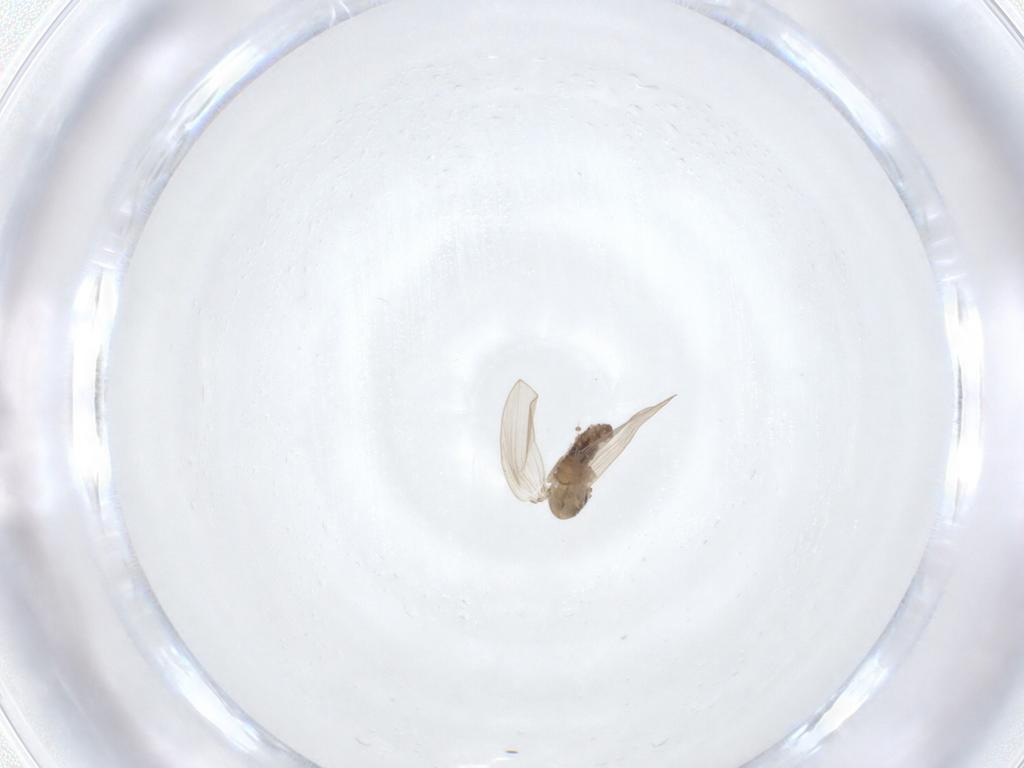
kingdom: Animalia
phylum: Arthropoda
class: Insecta
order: Diptera
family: Psychodidae
